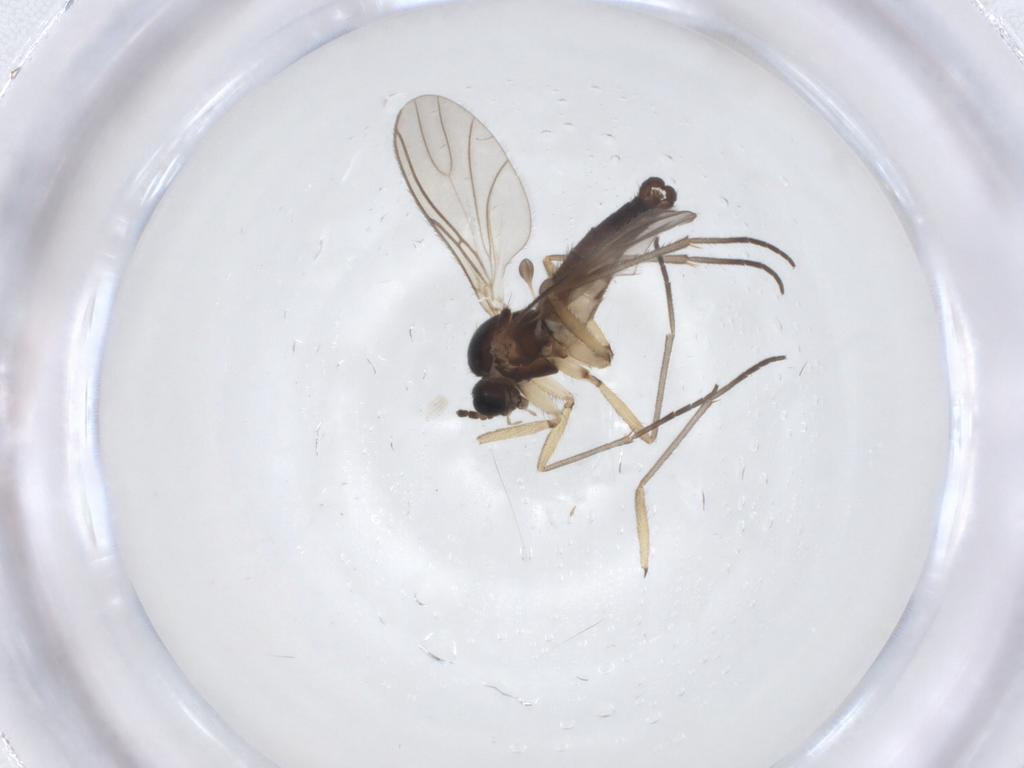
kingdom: Animalia
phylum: Arthropoda
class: Insecta
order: Diptera
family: Sciaridae
